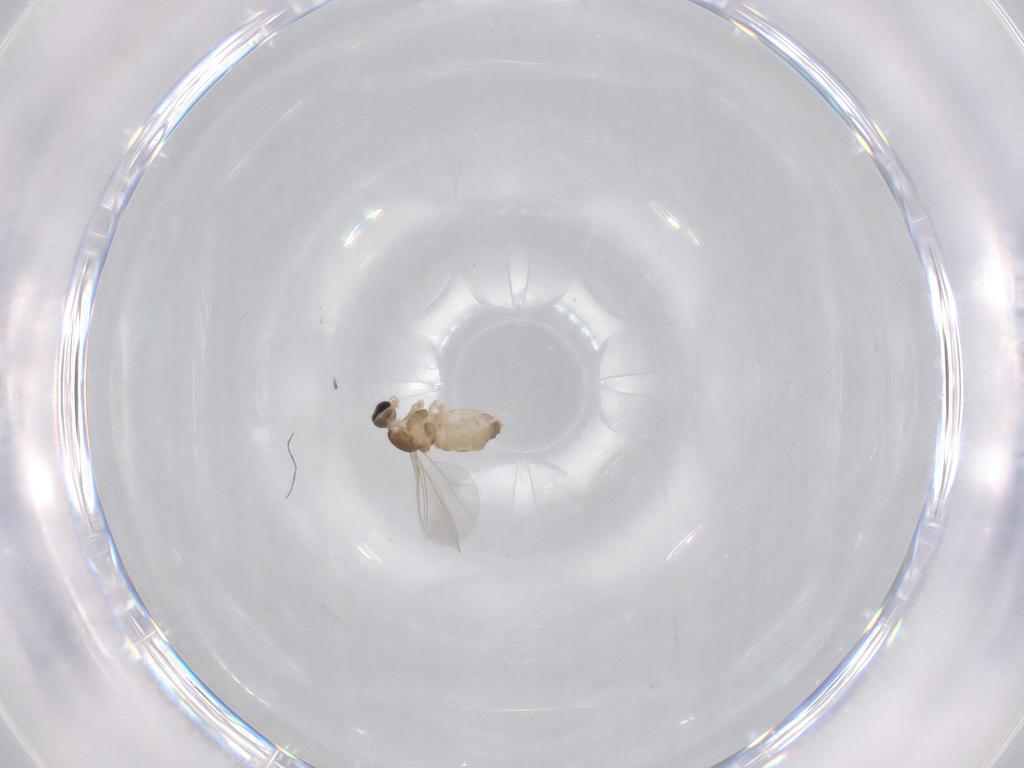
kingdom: Animalia
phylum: Arthropoda
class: Insecta
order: Diptera
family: Cecidomyiidae
